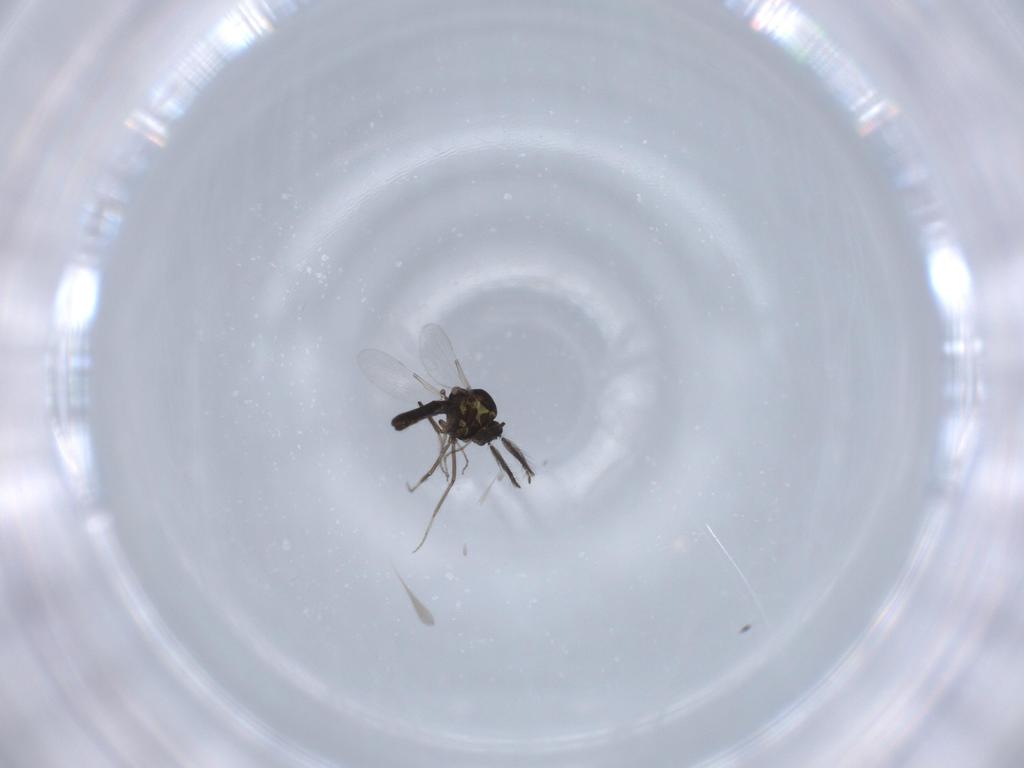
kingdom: Animalia
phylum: Arthropoda
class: Insecta
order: Diptera
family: Ceratopogonidae
